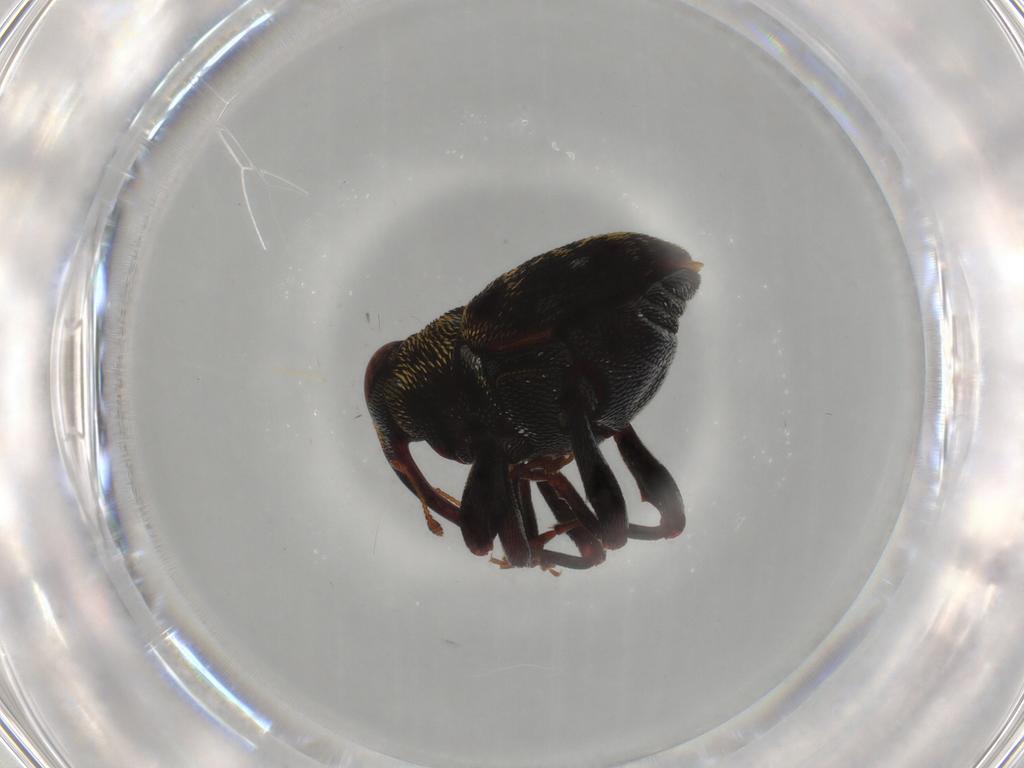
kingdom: Animalia
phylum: Arthropoda
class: Insecta
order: Coleoptera
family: Curculionidae
